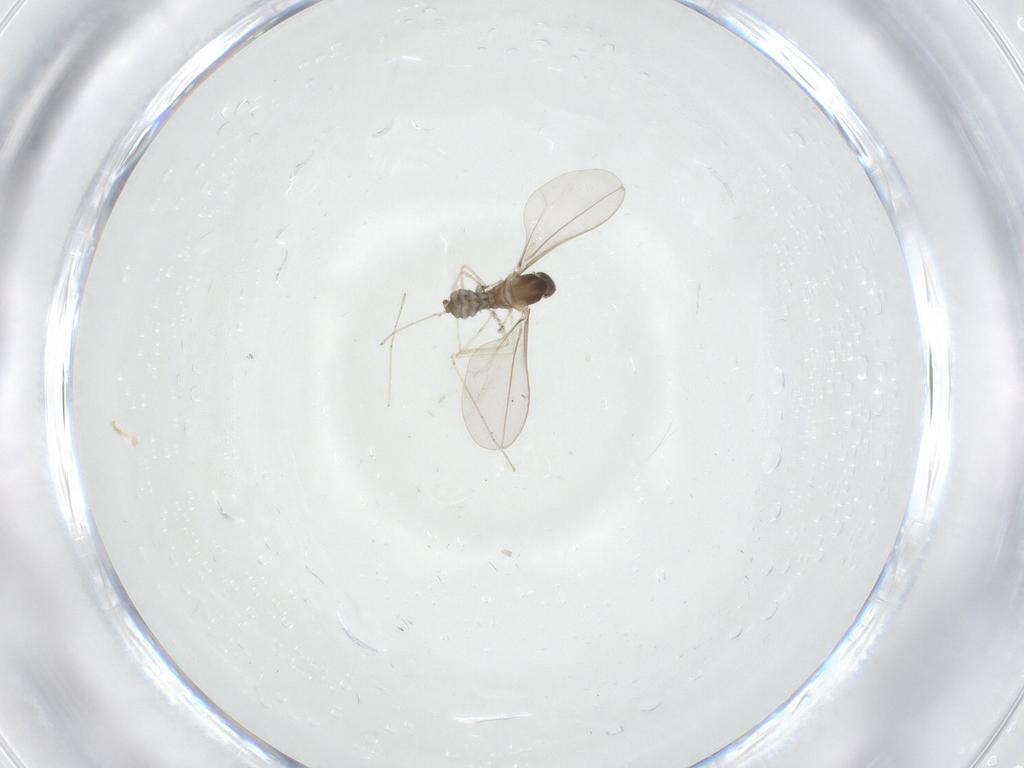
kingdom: Animalia
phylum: Arthropoda
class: Insecta
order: Diptera
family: Cecidomyiidae
